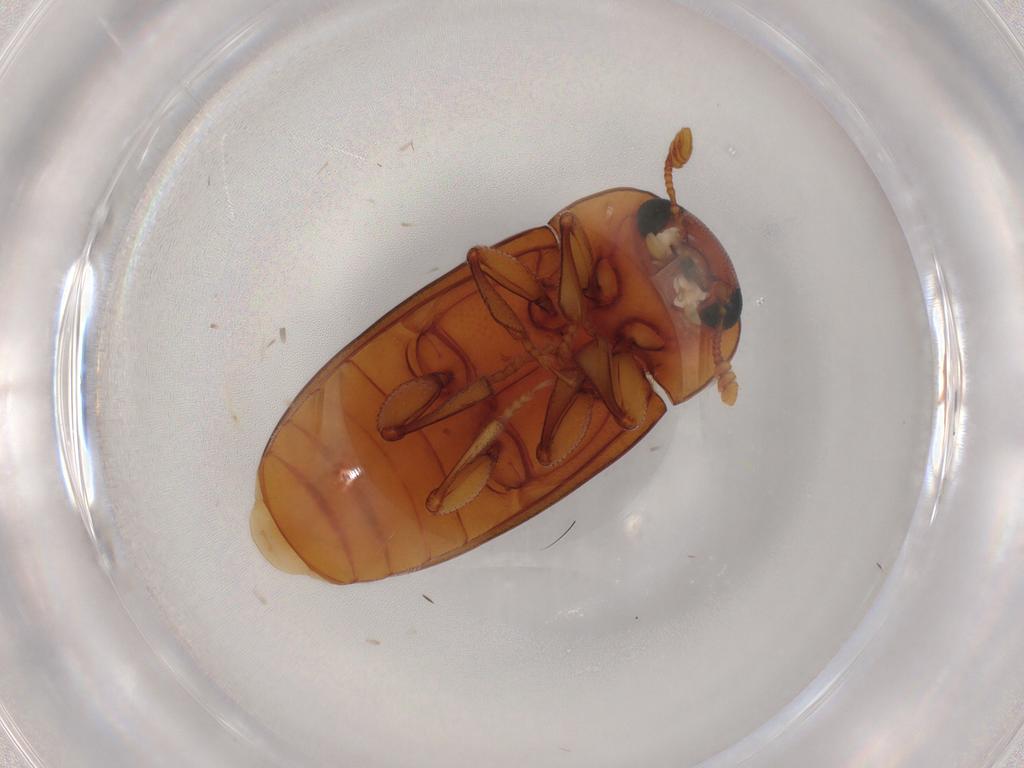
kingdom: Animalia
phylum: Arthropoda
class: Insecta
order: Coleoptera
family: Erotylidae
